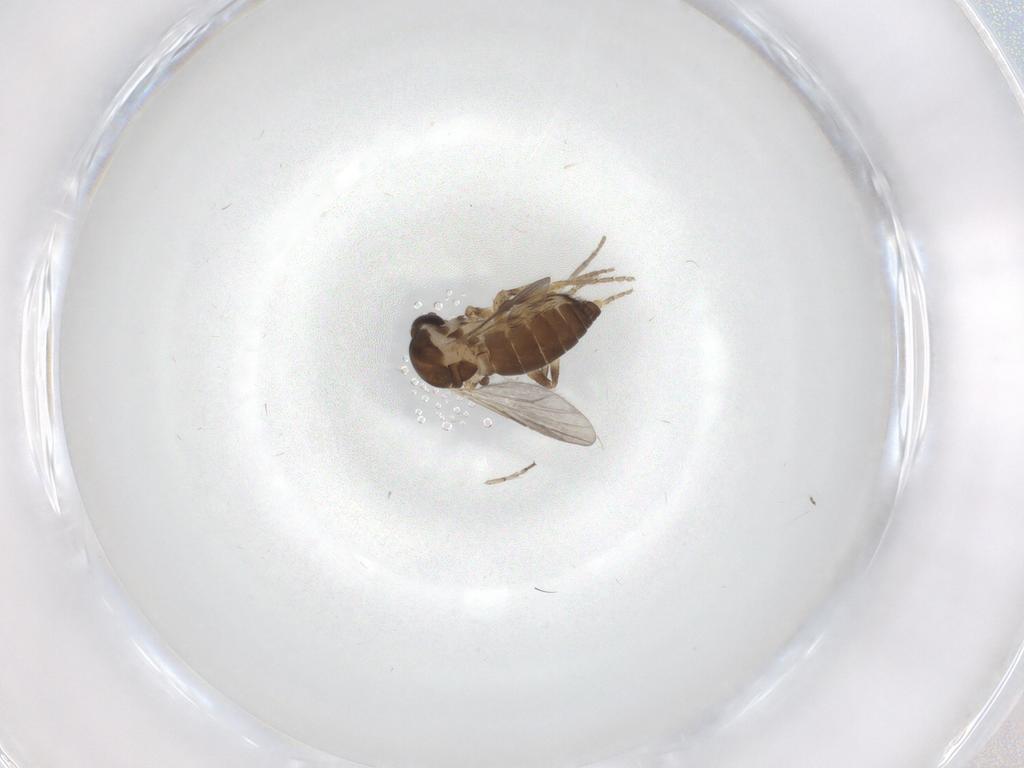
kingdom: Animalia
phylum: Arthropoda
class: Insecta
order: Diptera
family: Ceratopogonidae
